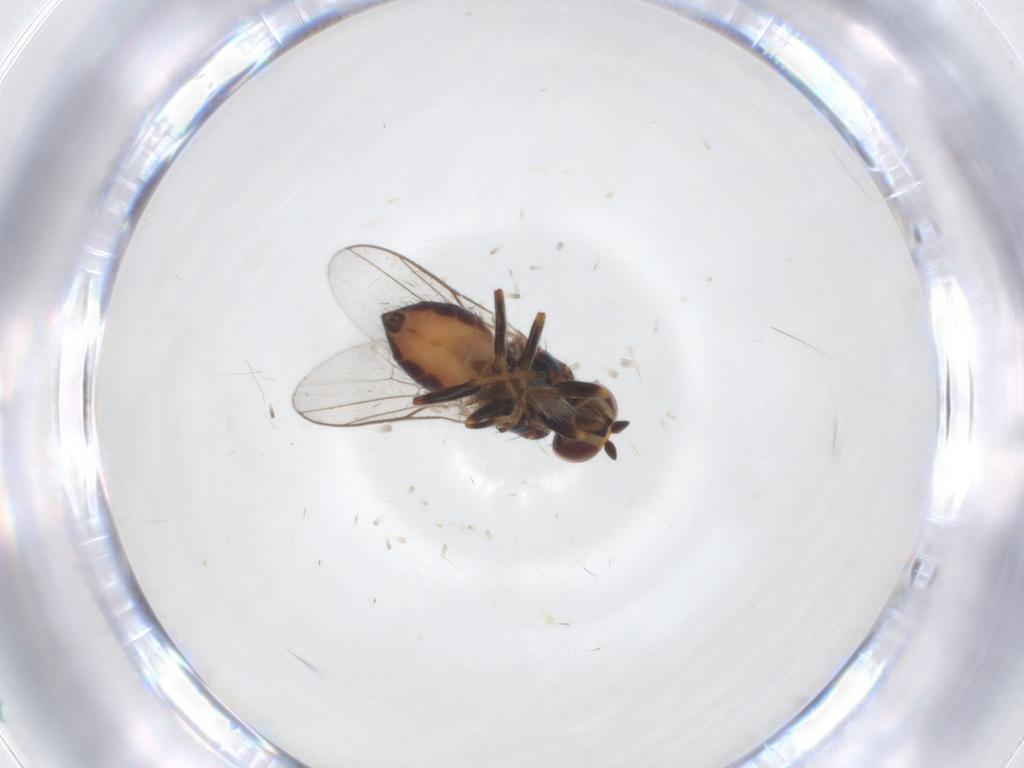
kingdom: Animalia
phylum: Arthropoda
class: Insecta
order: Diptera
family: Chloropidae
